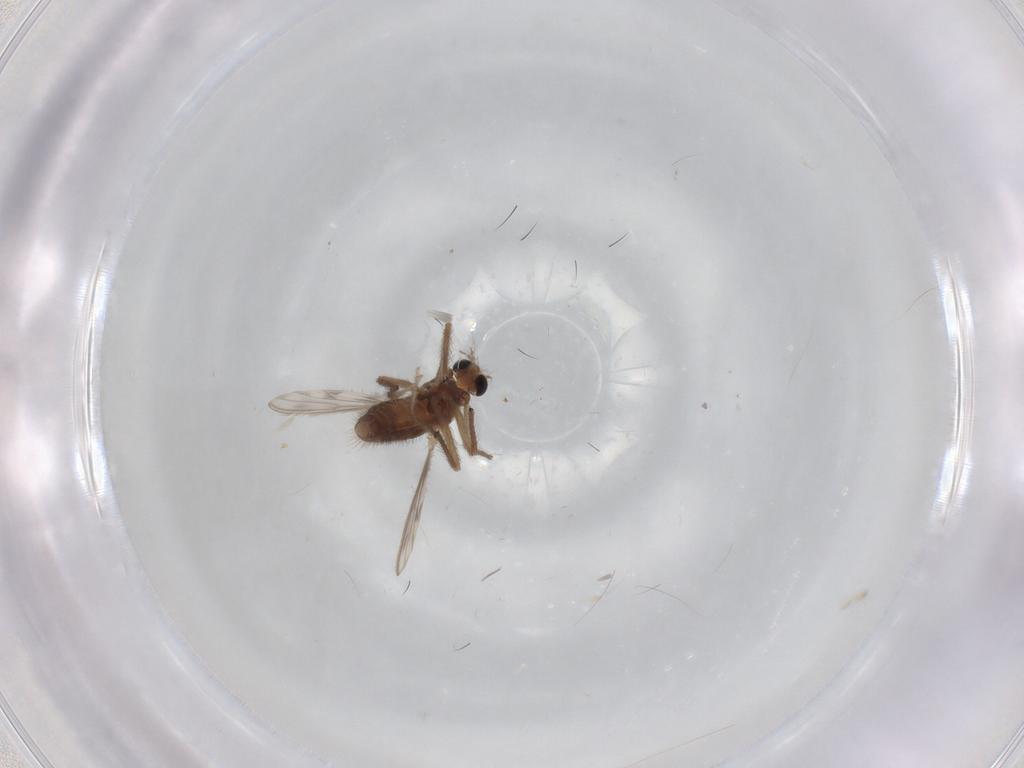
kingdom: Animalia
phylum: Arthropoda
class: Insecta
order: Diptera
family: Chironomidae
